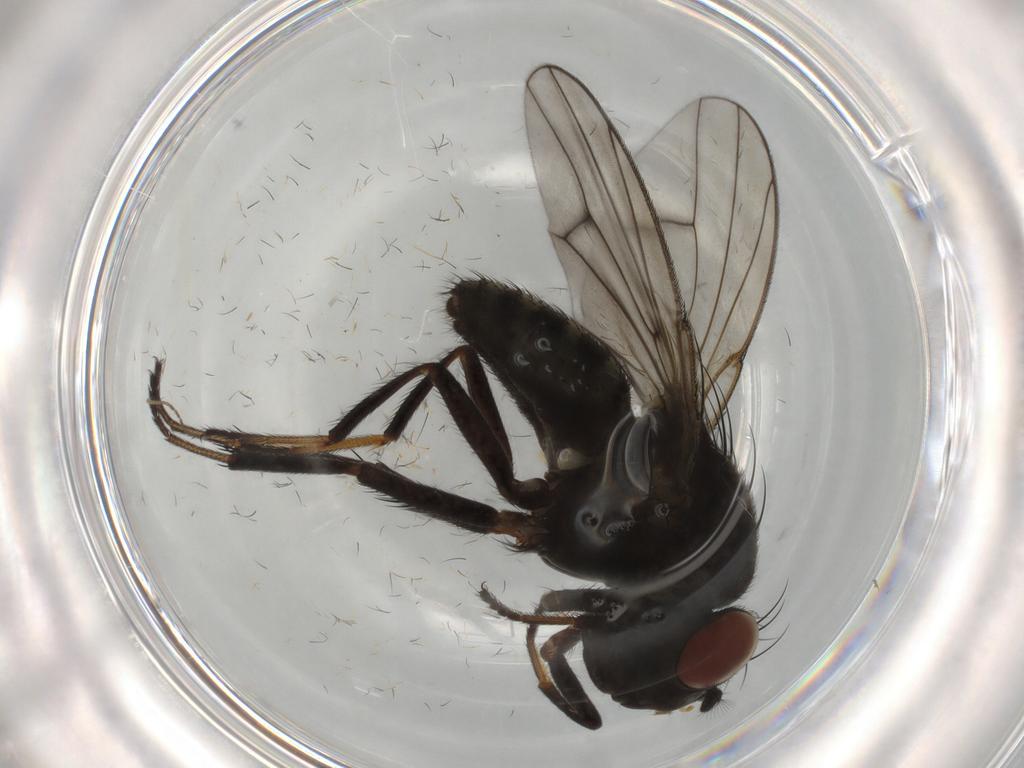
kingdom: Animalia
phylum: Arthropoda
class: Insecta
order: Diptera
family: Ephydridae
